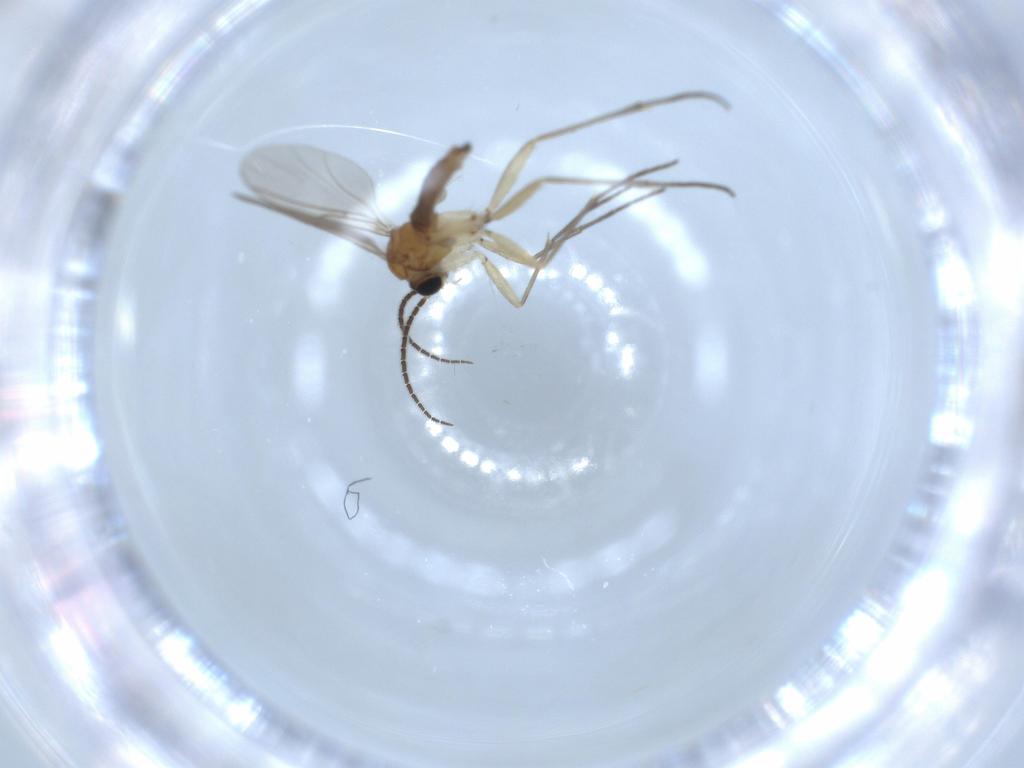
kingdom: Animalia
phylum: Arthropoda
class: Insecta
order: Diptera
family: Sciaridae
